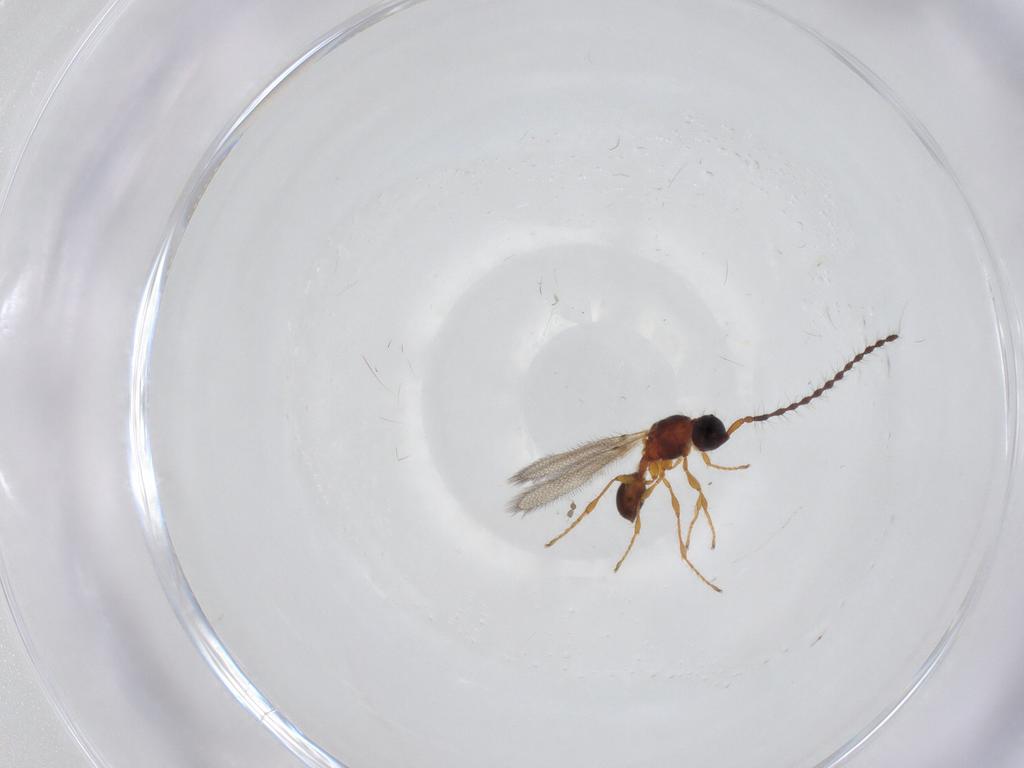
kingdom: Animalia
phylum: Arthropoda
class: Insecta
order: Hymenoptera
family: Diapriidae
